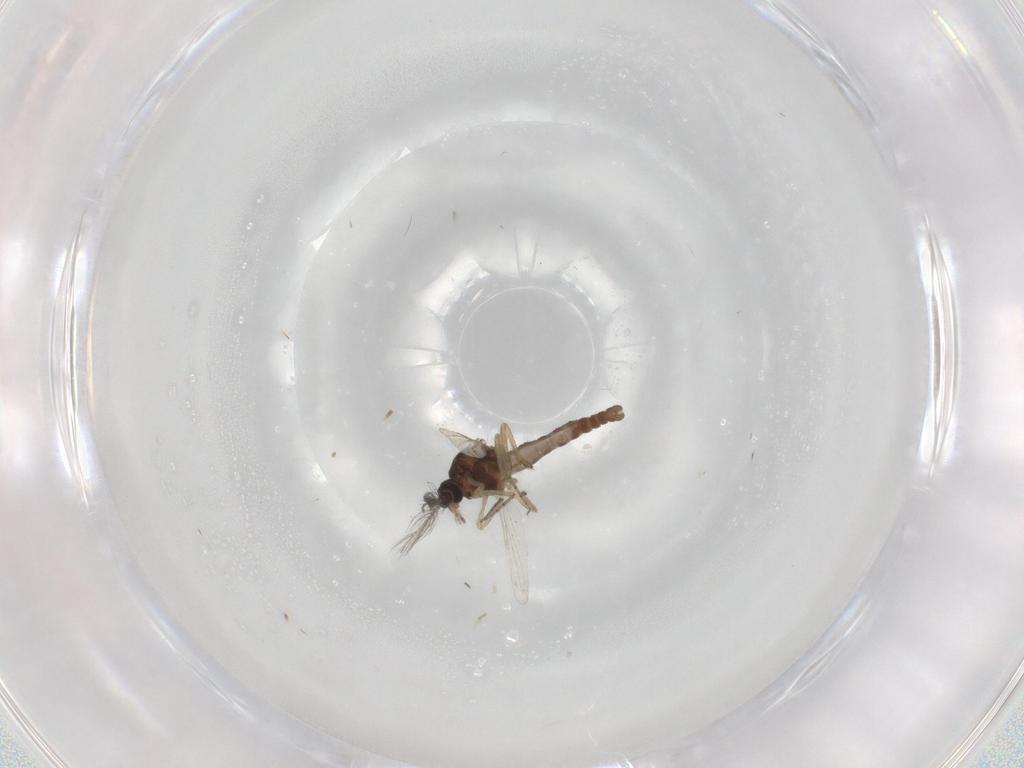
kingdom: Animalia
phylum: Arthropoda
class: Insecta
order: Diptera
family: Ceratopogonidae
